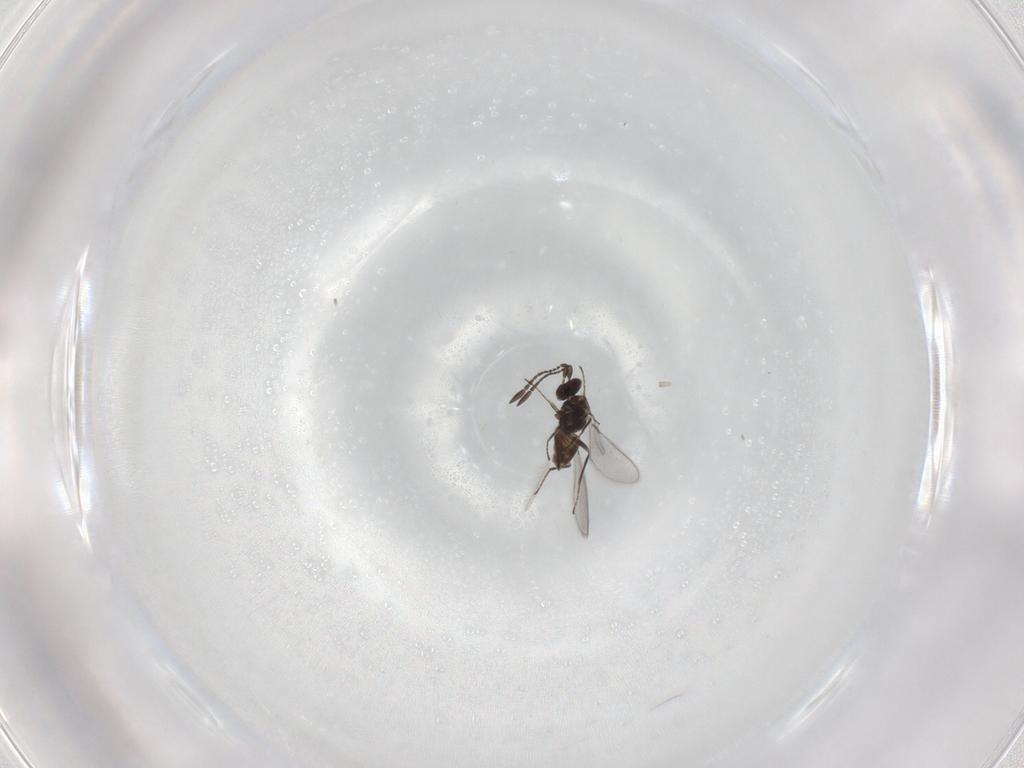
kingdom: Animalia
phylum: Arthropoda
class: Insecta
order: Hymenoptera
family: Mymaridae
